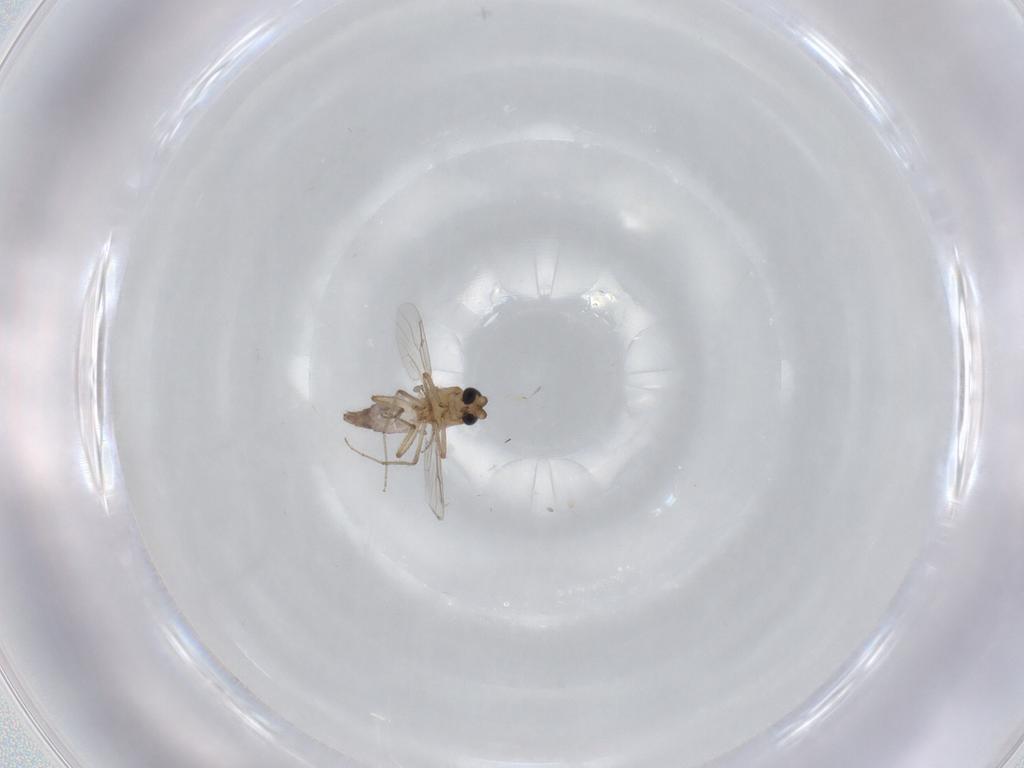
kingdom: Animalia
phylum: Arthropoda
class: Insecta
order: Diptera
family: Ceratopogonidae
